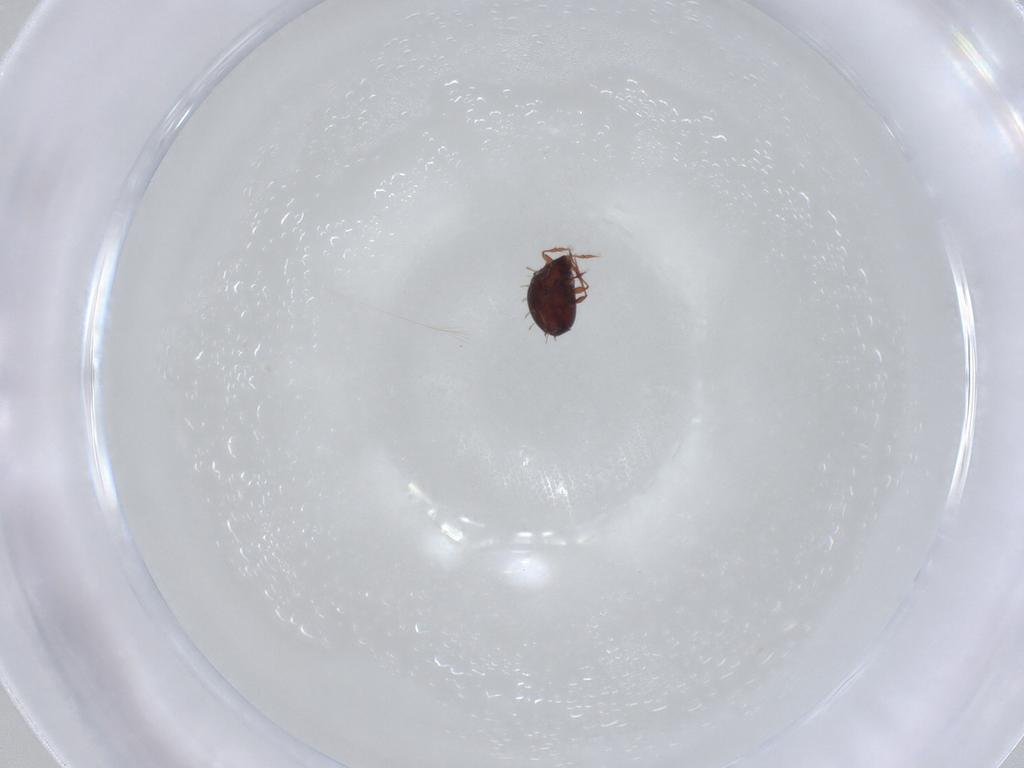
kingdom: Animalia
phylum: Arthropoda
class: Arachnida
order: Sarcoptiformes
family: Caloppiidae
